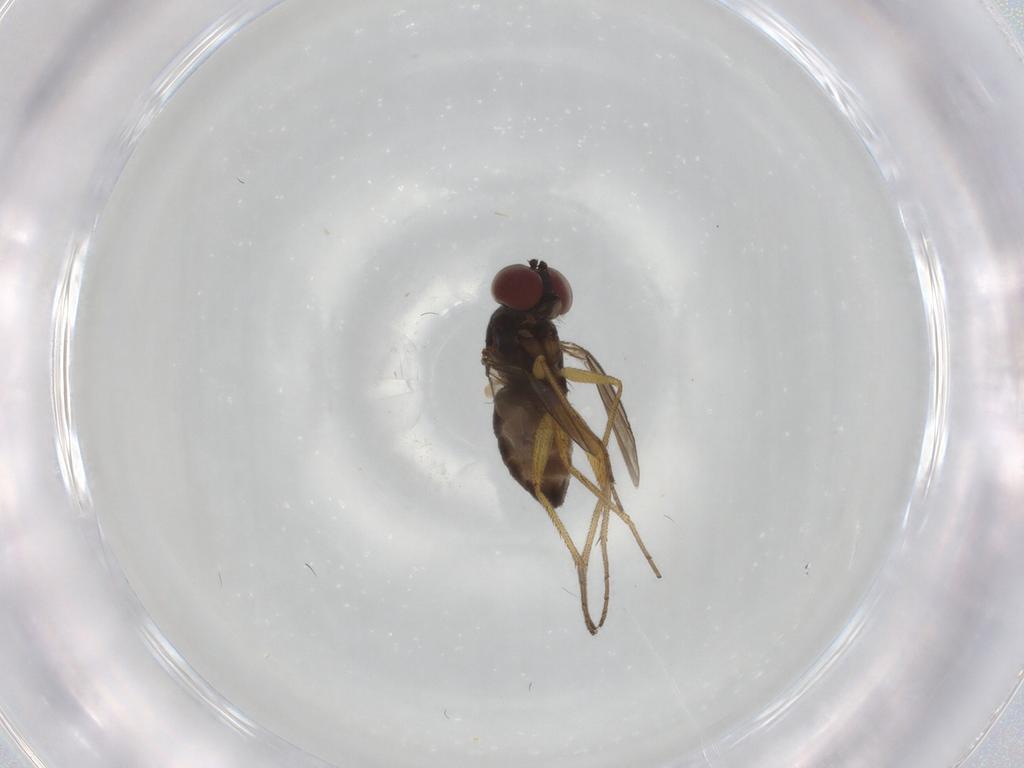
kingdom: Animalia
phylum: Arthropoda
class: Insecta
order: Diptera
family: Dolichopodidae
